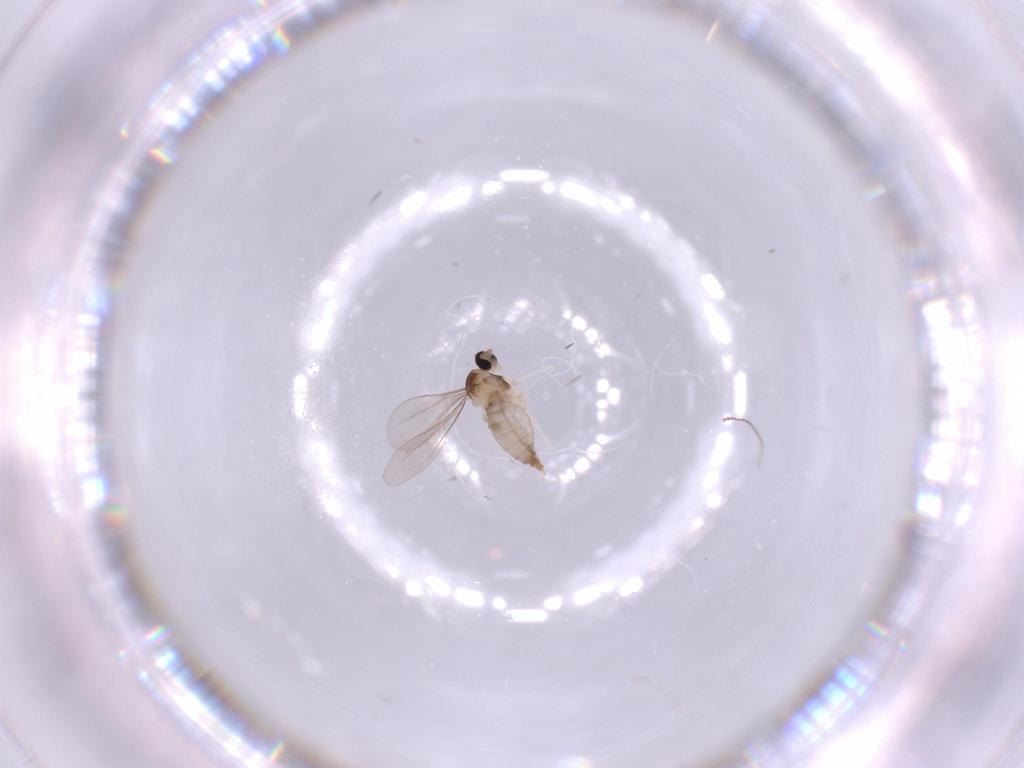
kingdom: Animalia
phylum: Arthropoda
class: Insecta
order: Diptera
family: Cecidomyiidae
